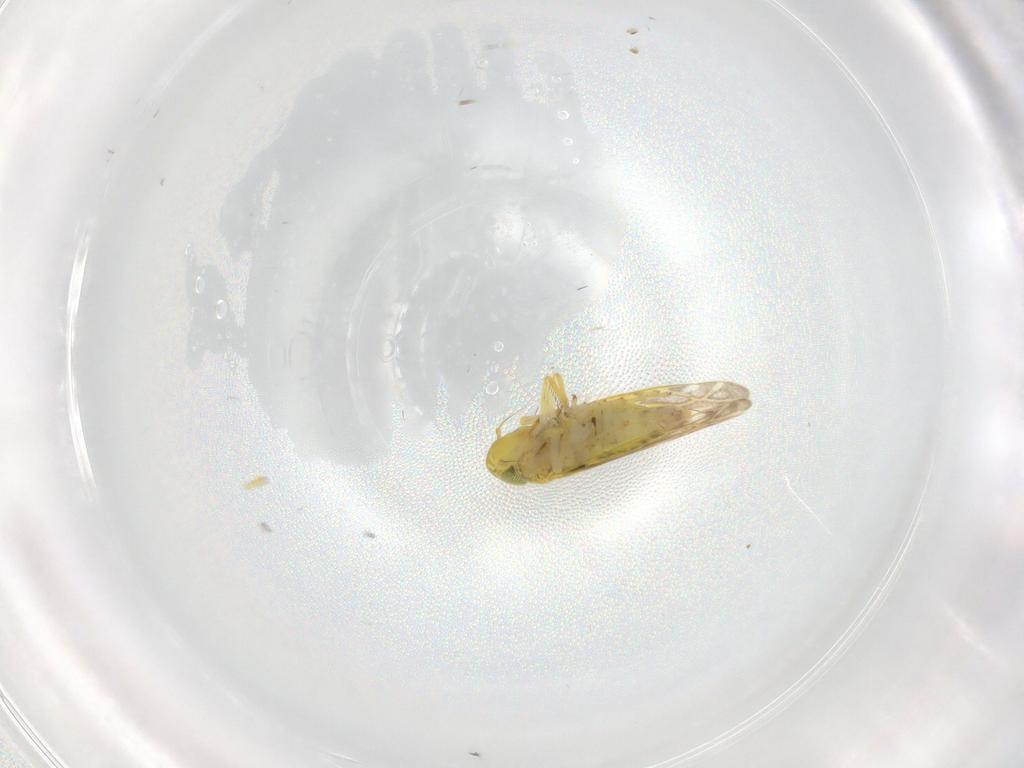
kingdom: Animalia
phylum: Arthropoda
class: Insecta
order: Hemiptera
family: Cicadellidae
